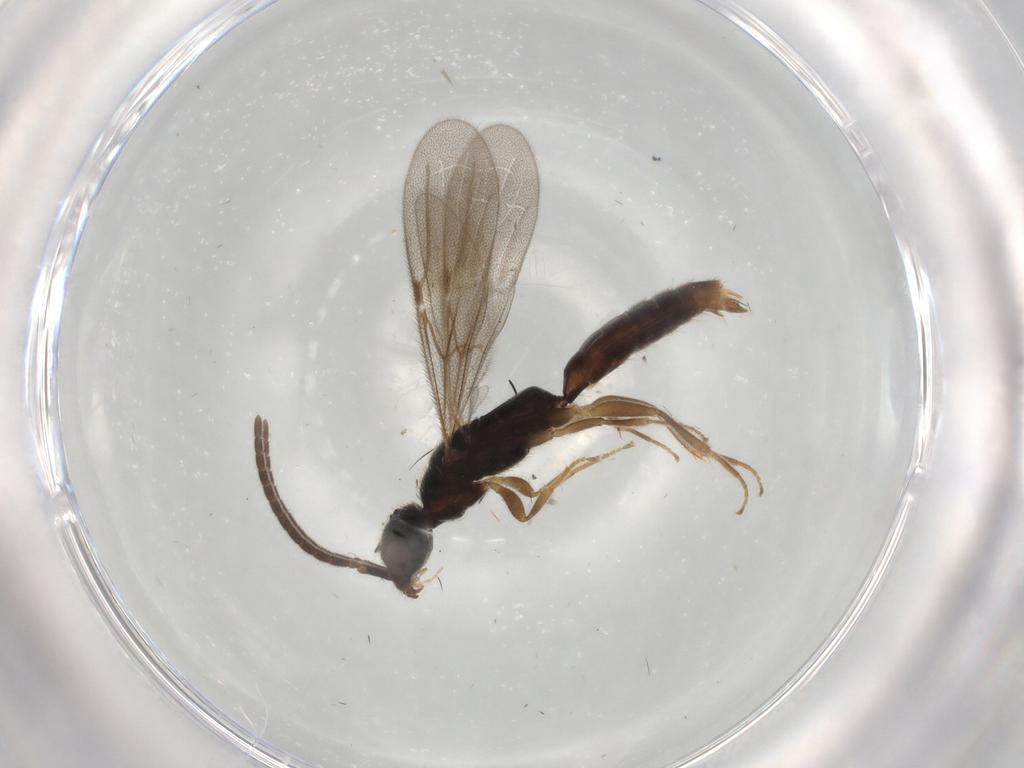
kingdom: Animalia
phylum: Arthropoda
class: Insecta
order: Hymenoptera
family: Bethylidae
